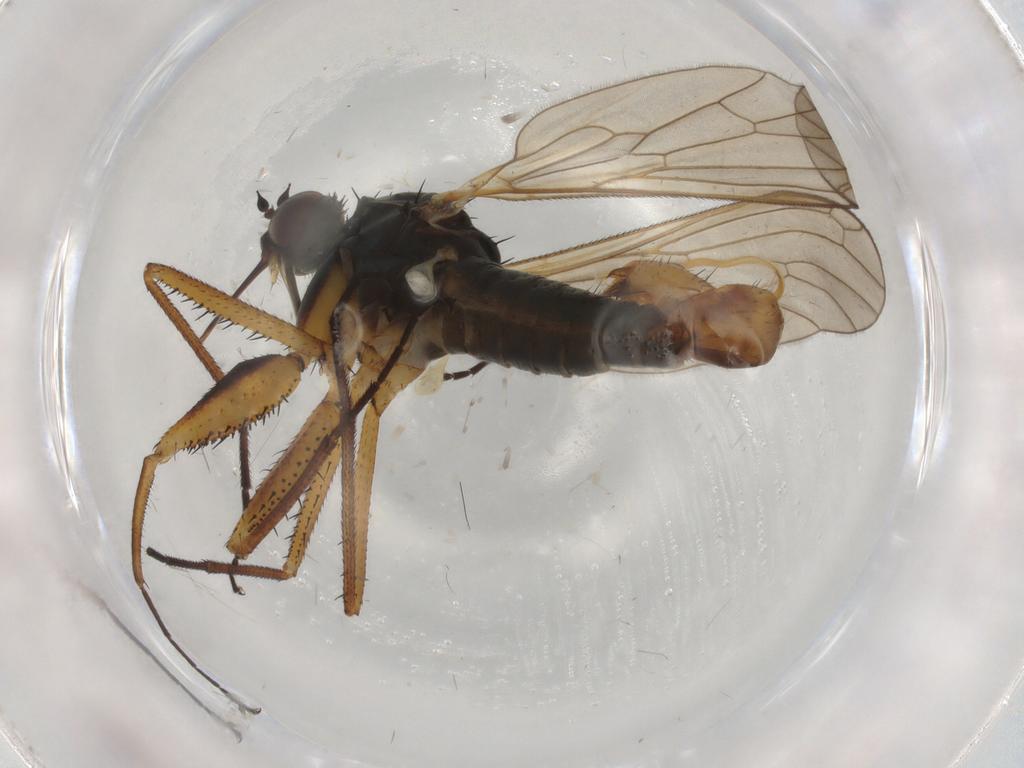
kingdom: Animalia
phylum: Arthropoda
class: Insecta
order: Diptera
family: Empididae
